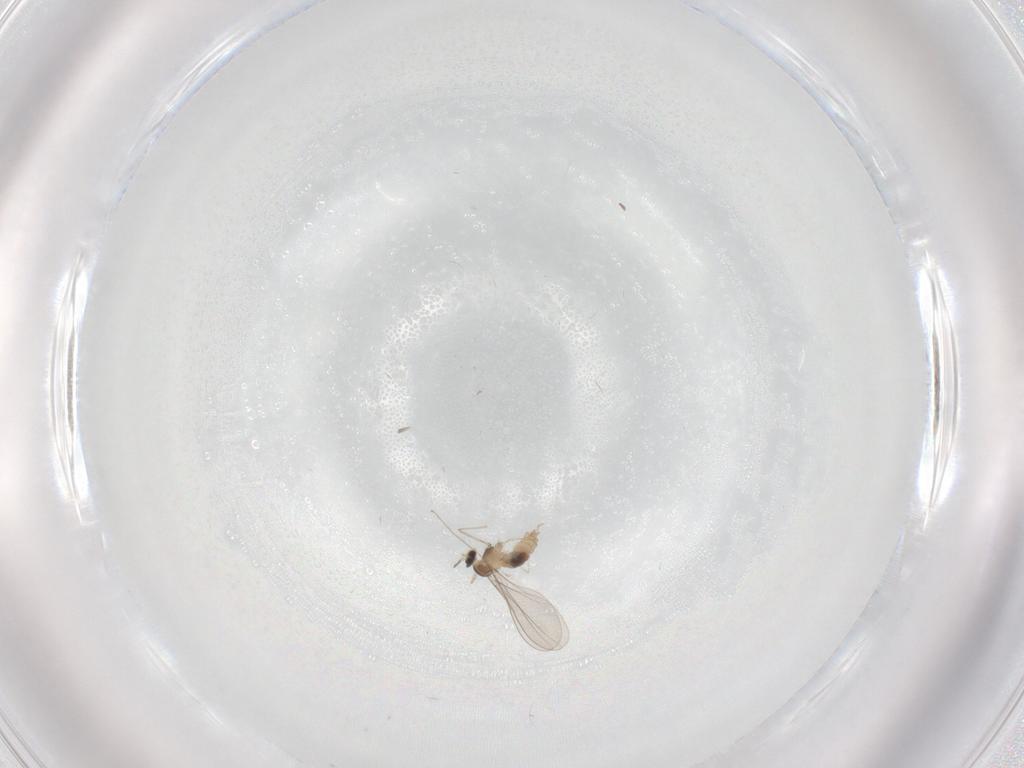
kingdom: Animalia
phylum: Arthropoda
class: Insecta
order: Diptera
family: Cecidomyiidae
